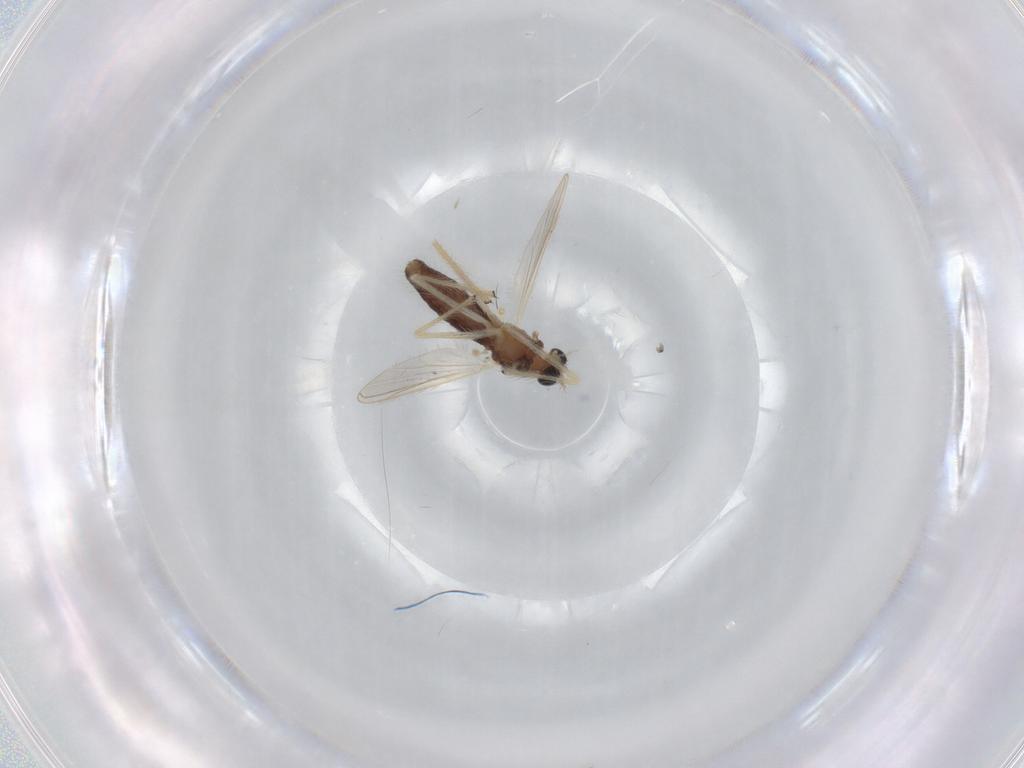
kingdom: Animalia
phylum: Arthropoda
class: Insecta
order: Diptera
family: Chironomidae
